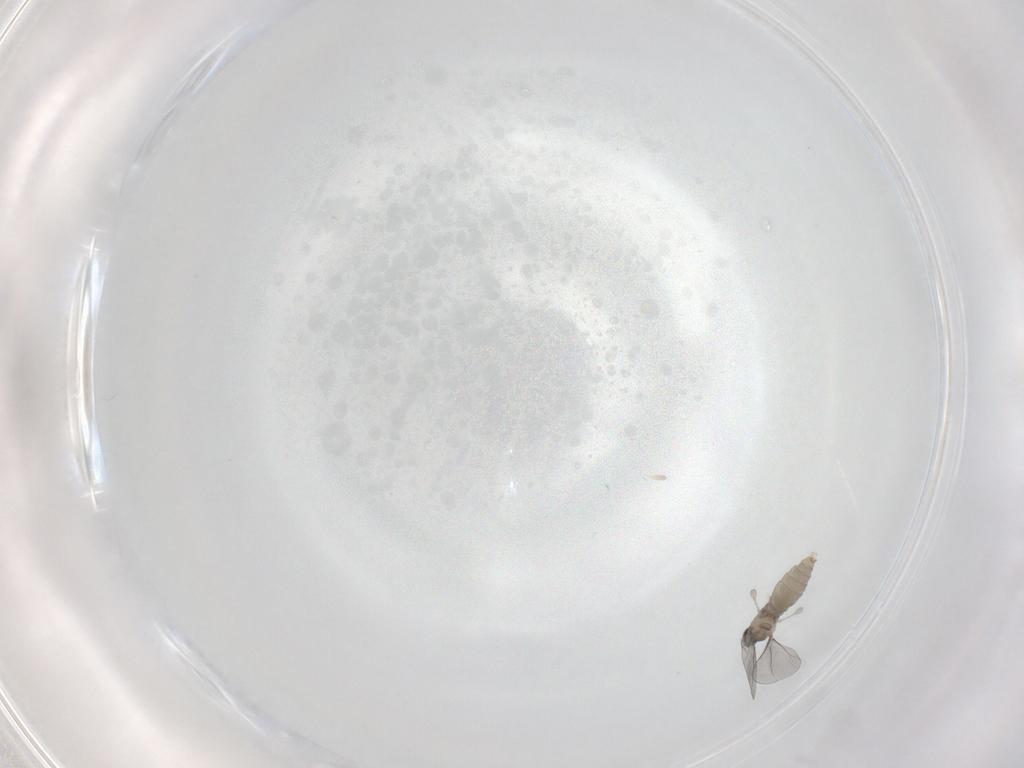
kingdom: Animalia
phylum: Arthropoda
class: Insecta
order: Diptera
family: Cecidomyiidae
